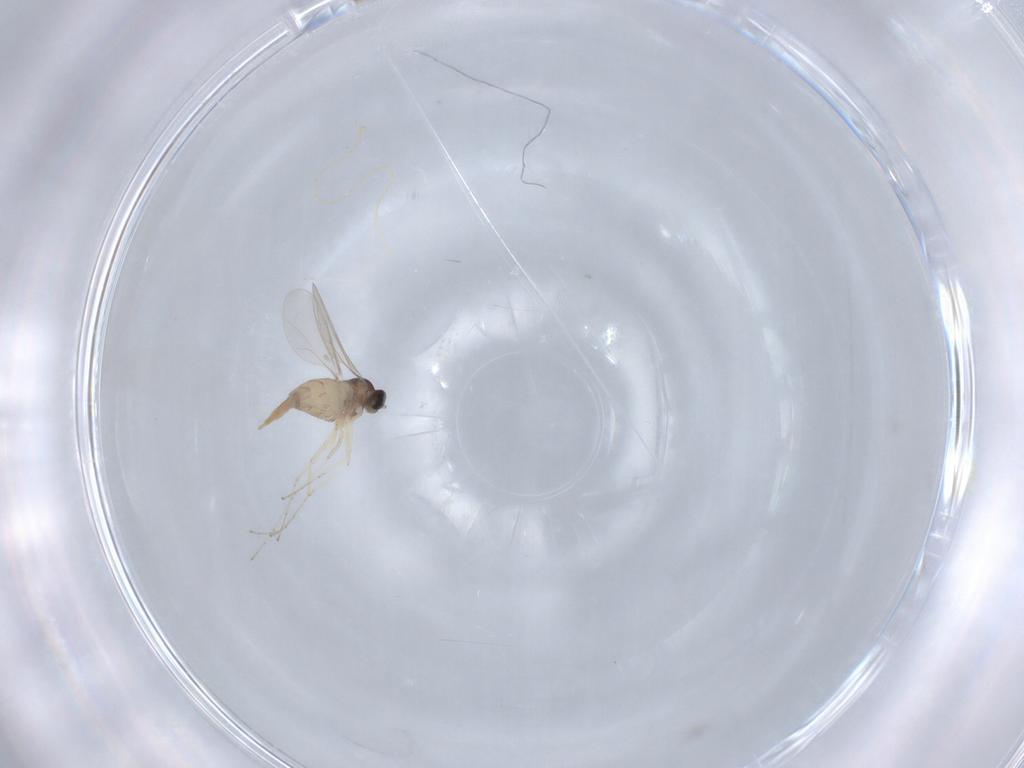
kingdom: Animalia
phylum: Arthropoda
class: Insecta
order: Diptera
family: Cecidomyiidae
